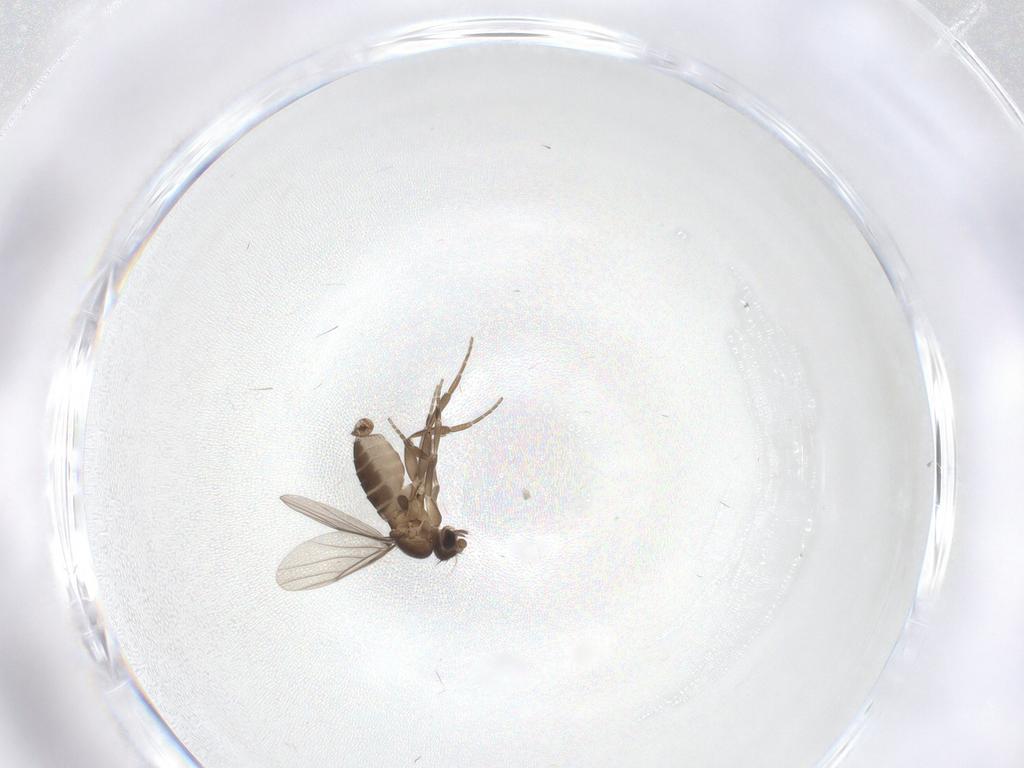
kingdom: Animalia
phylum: Arthropoda
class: Insecta
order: Diptera
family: Phoridae
